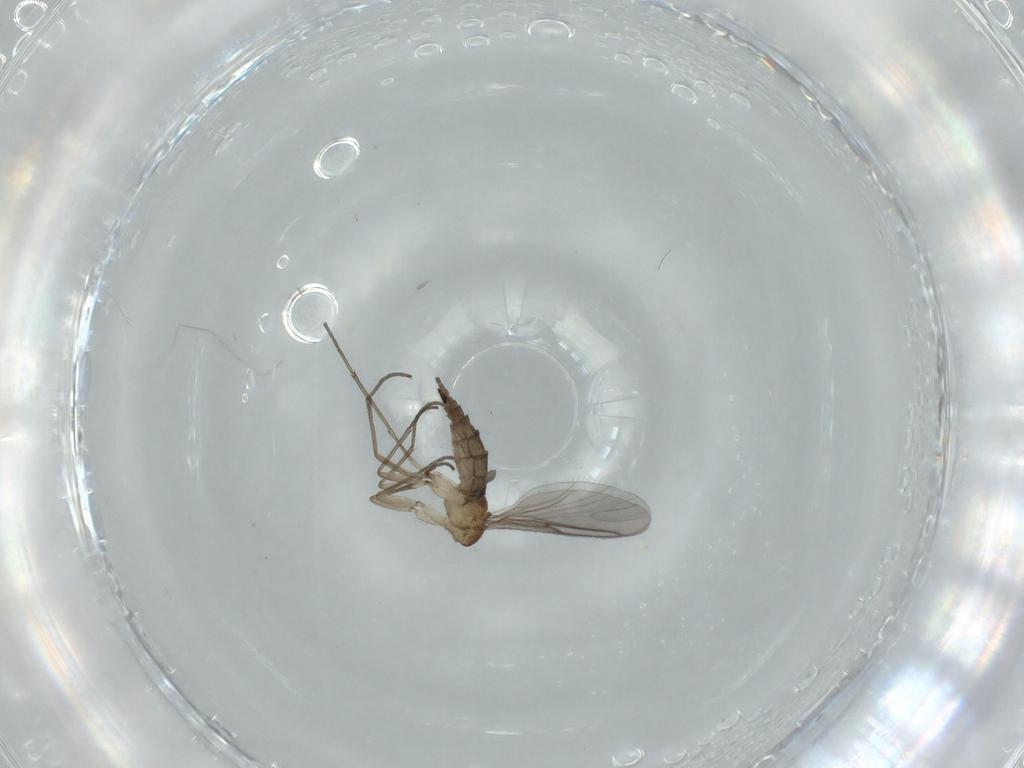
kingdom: Animalia
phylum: Arthropoda
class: Insecta
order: Diptera
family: Sciaridae
